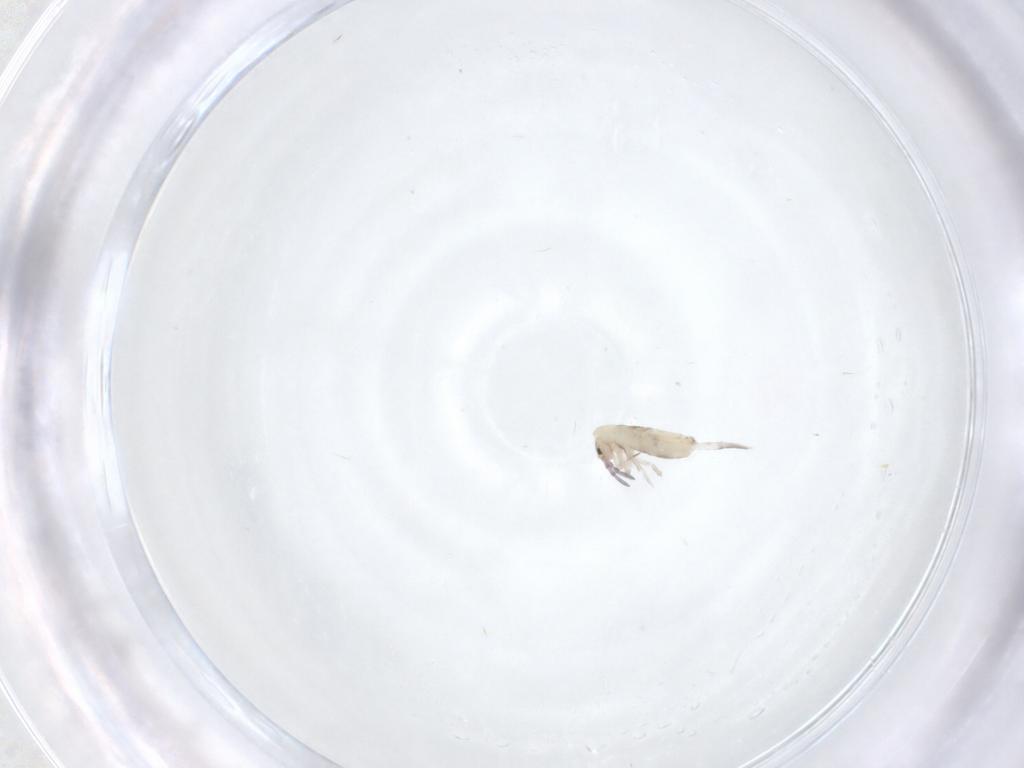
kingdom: Animalia
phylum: Arthropoda
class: Collembola
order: Entomobryomorpha
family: Entomobryidae
